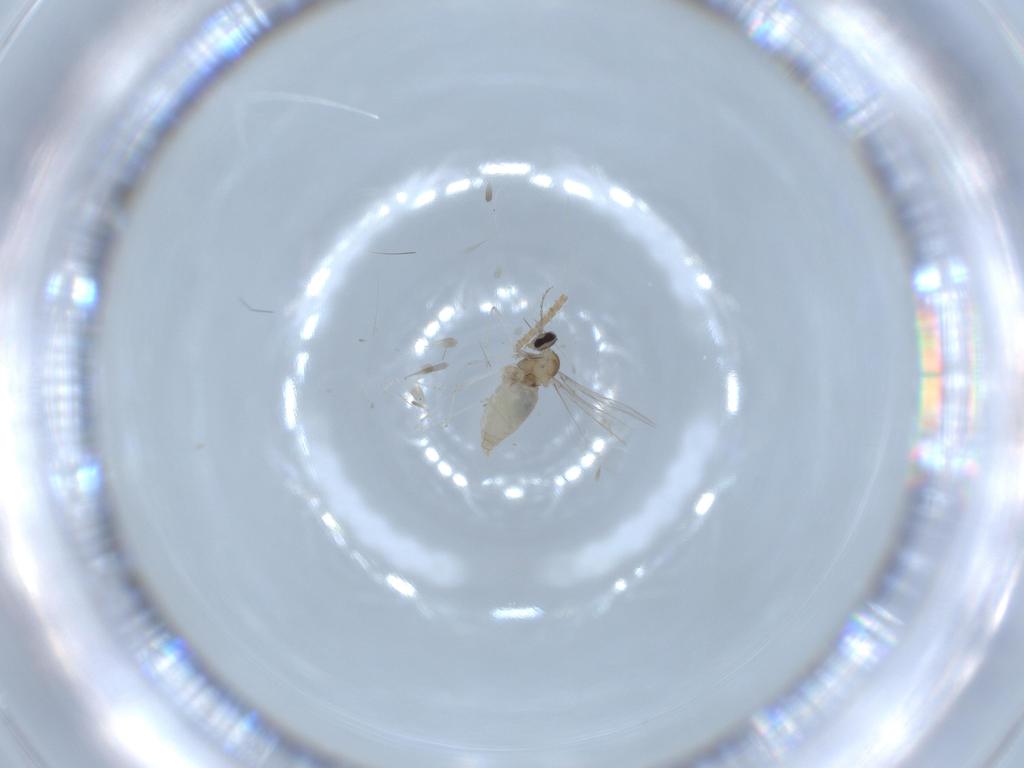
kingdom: Animalia
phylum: Arthropoda
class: Insecta
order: Diptera
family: Cecidomyiidae
